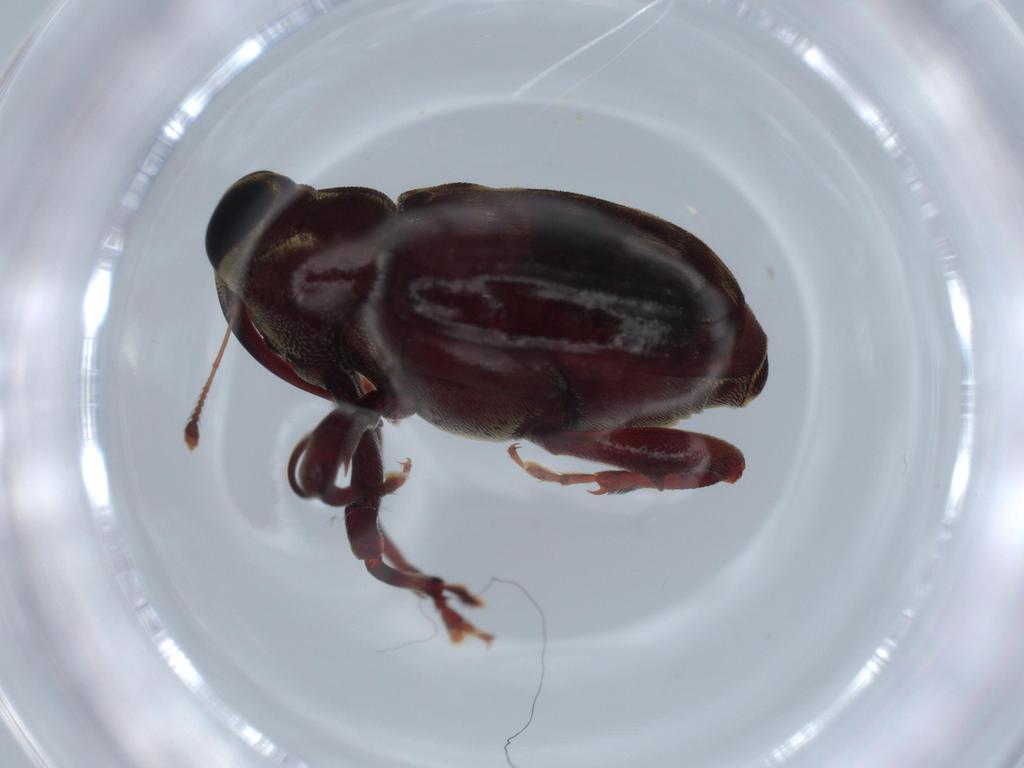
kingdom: Animalia
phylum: Arthropoda
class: Insecta
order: Coleoptera
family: Curculionidae
